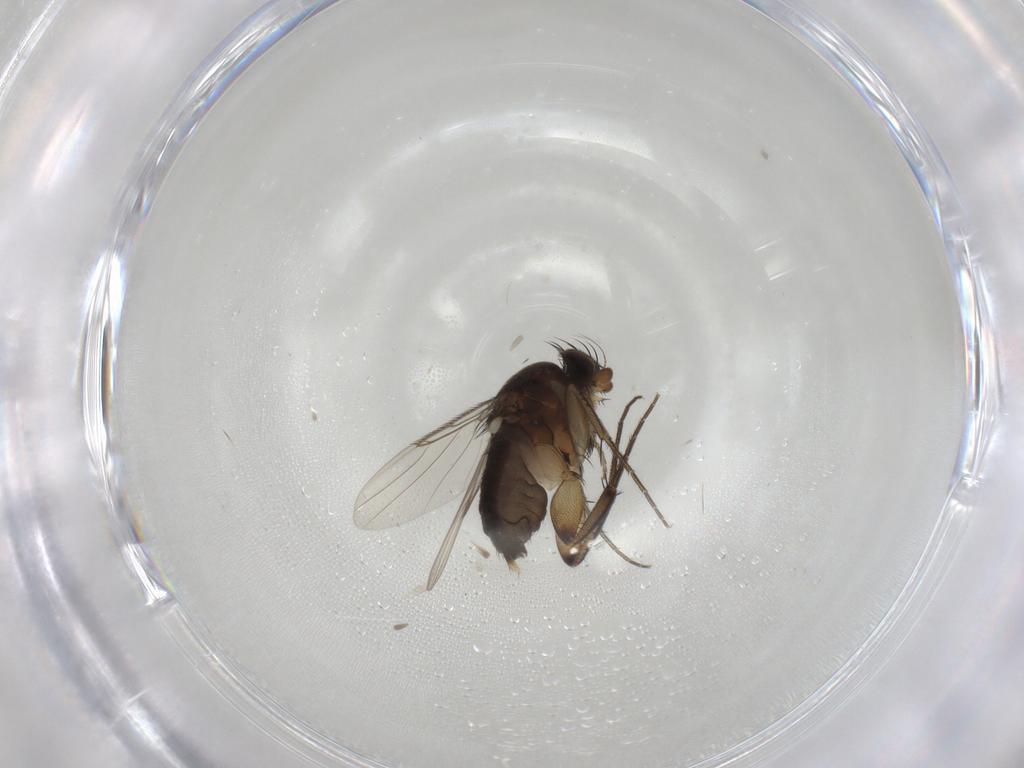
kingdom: Animalia
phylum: Arthropoda
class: Insecta
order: Diptera
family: Phoridae
